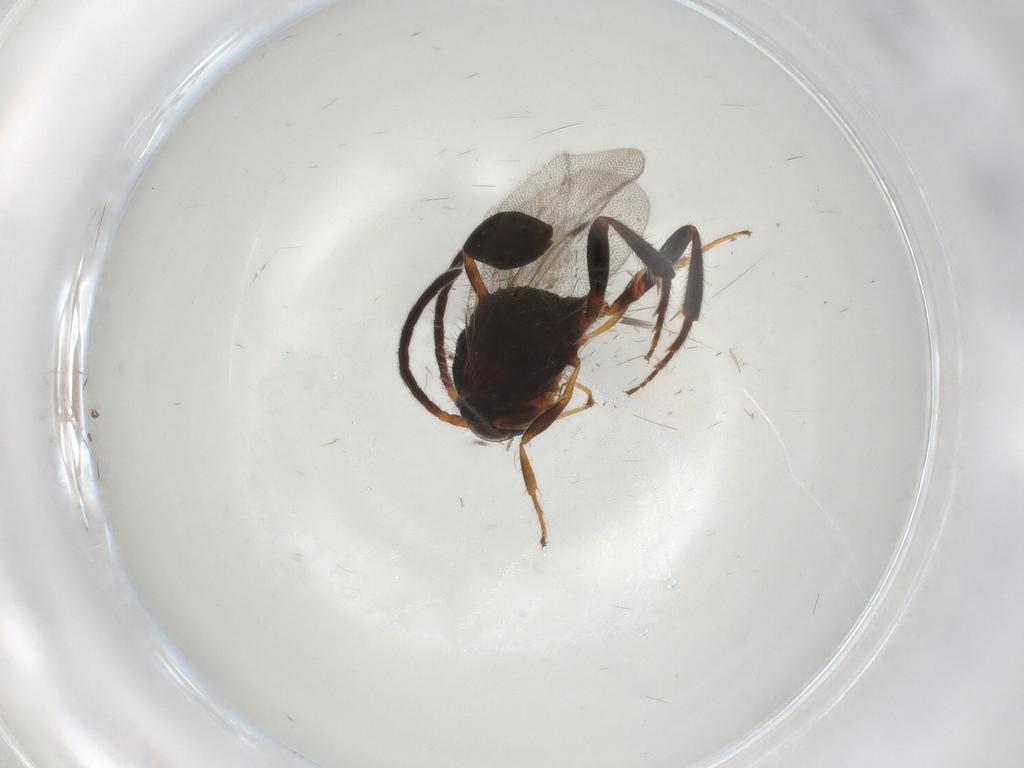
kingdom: Animalia
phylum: Arthropoda
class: Insecta
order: Hymenoptera
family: Evaniidae
